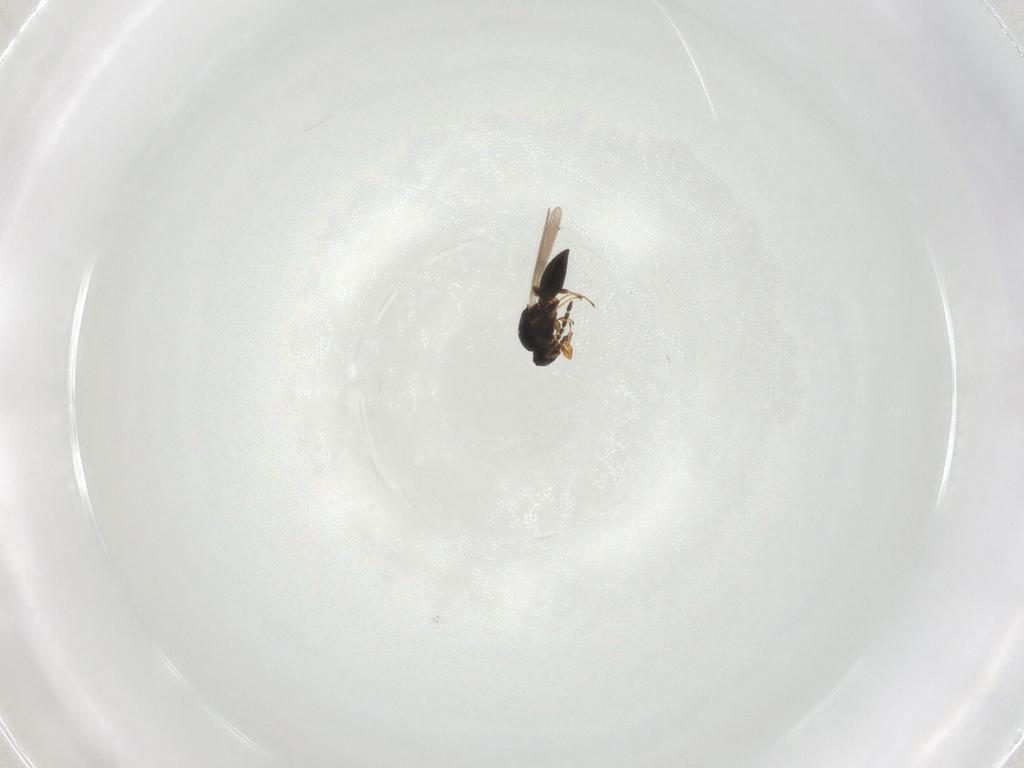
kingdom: Animalia
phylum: Arthropoda
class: Insecta
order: Hymenoptera
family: Platygastridae
